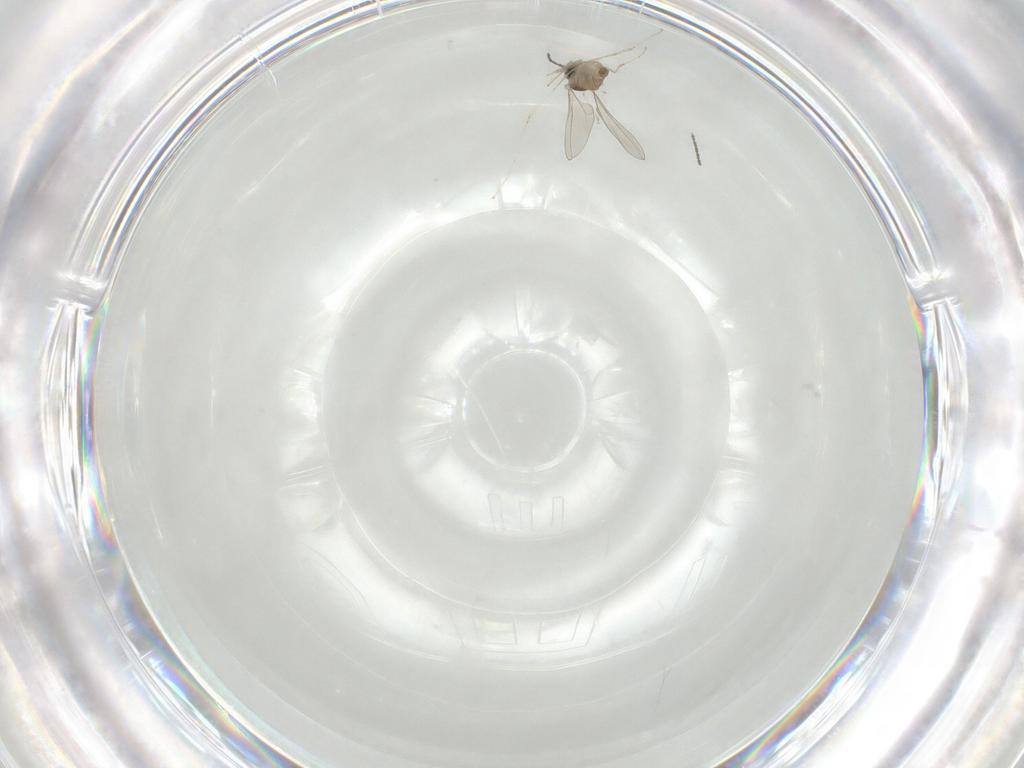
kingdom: Animalia
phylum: Arthropoda
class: Insecta
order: Diptera
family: Cecidomyiidae
